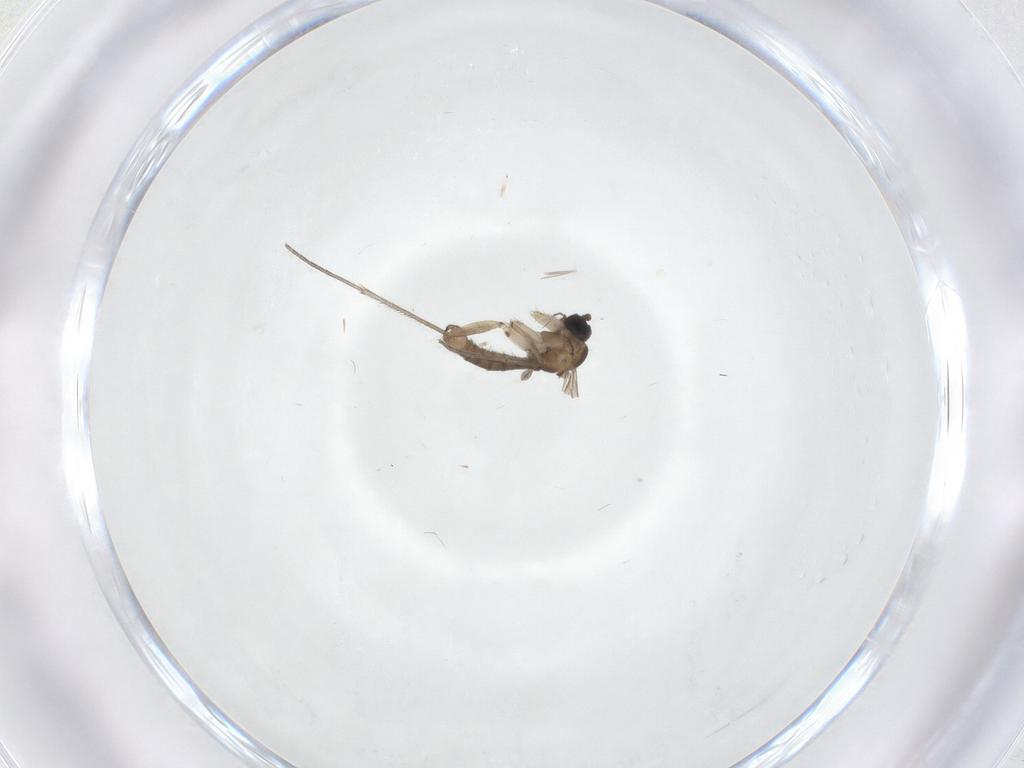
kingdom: Animalia
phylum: Arthropoda
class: Insecta
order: Diptera
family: Sciaridae
